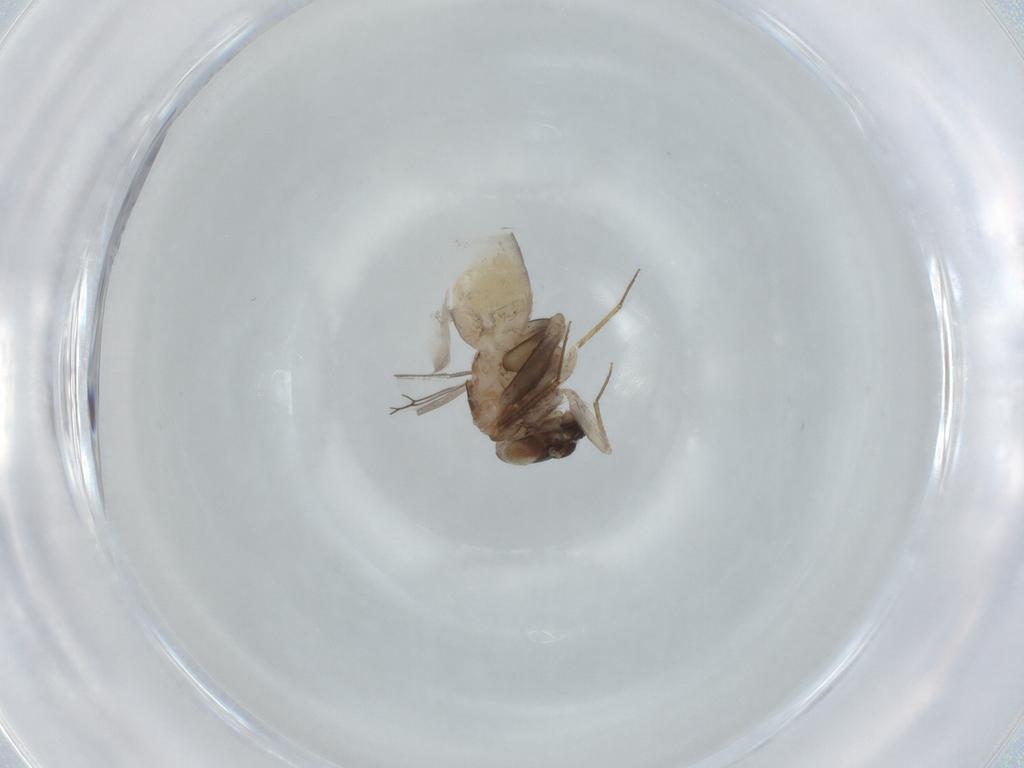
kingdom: Animalia
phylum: Arthropoda
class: Insecta
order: Psocodea
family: Lepidopsocidae
